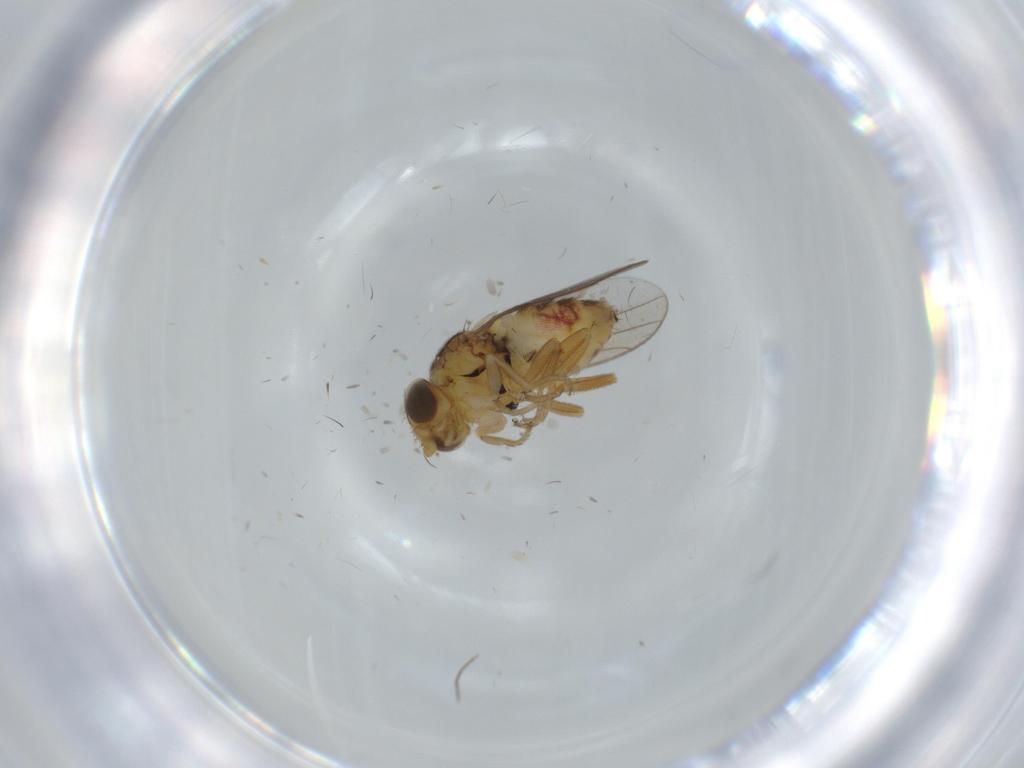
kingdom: Animalia
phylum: Arthropoda
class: Insecta
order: Diptera
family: Chloropidae
